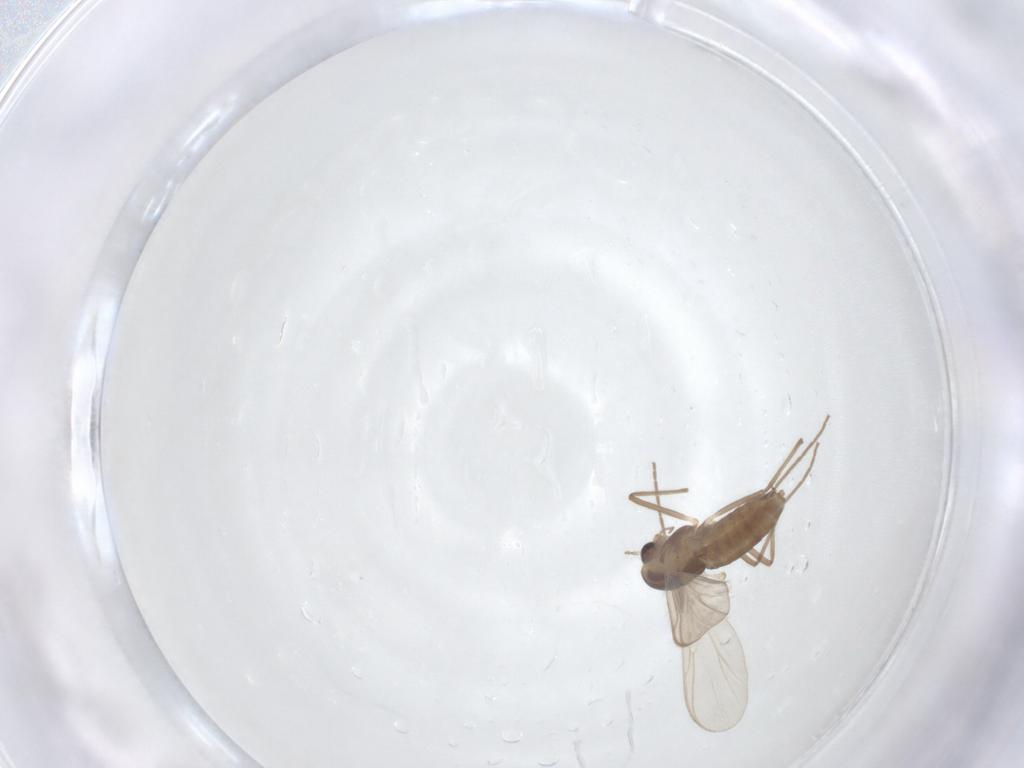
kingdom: Animalia
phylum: Arthropoda
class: Insecta
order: Diptera
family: Chironomidae
